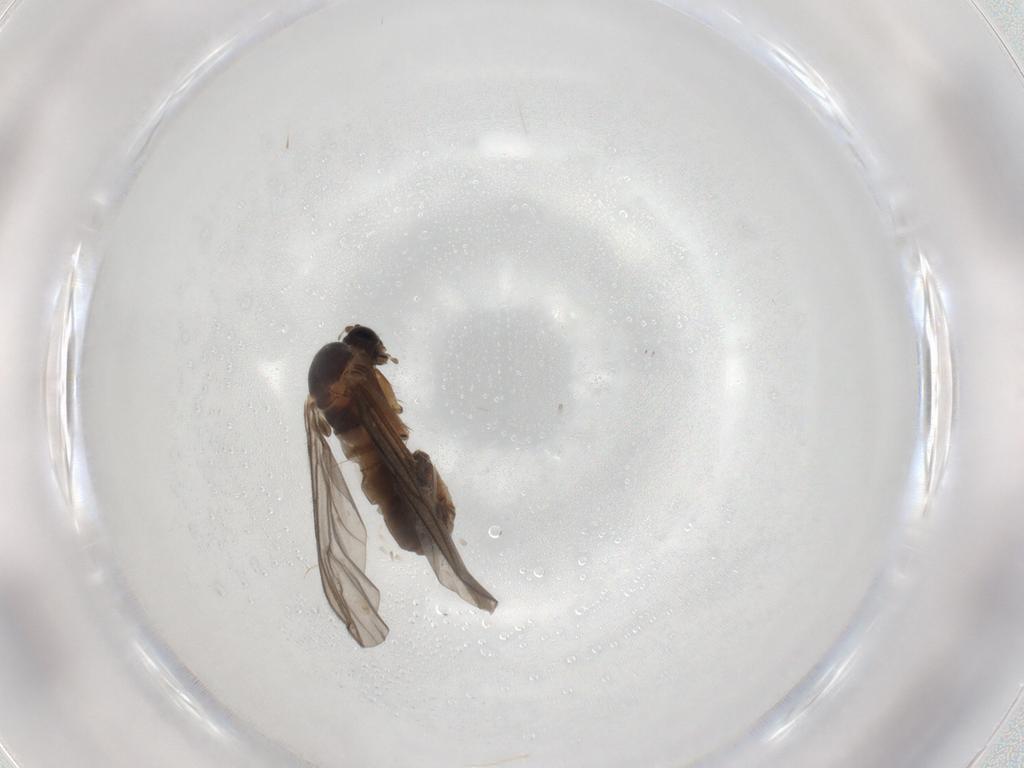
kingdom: Animalia
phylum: Arthropoda
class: Insecta
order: Diptera
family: Sciaridae
